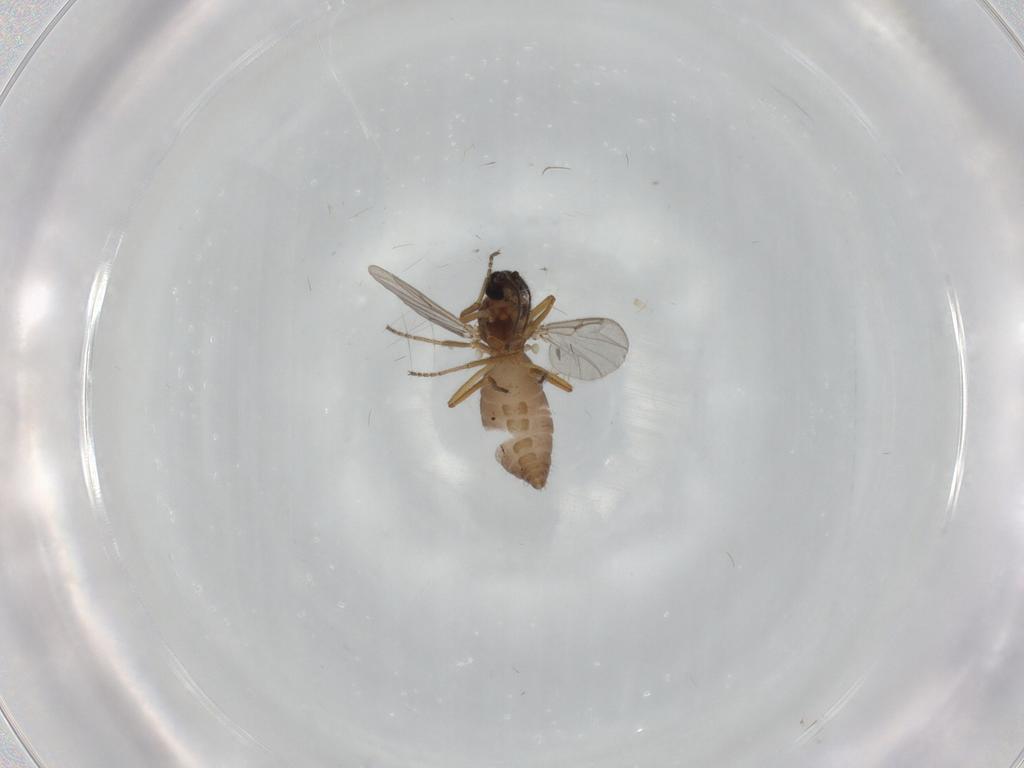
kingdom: Animalia
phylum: Arthropoda
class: Insecta
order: Diptera
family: Ceratopogonidae
